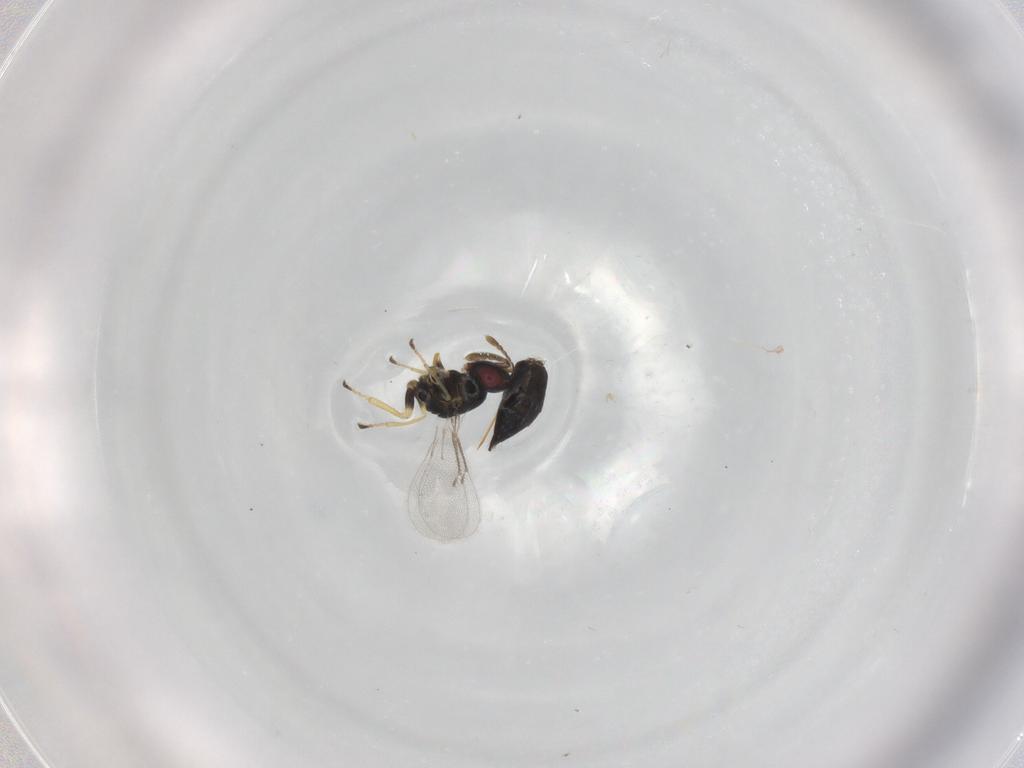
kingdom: Animalia
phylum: Arthropoda
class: Insecta
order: Hymenoptera
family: Eulophidae
